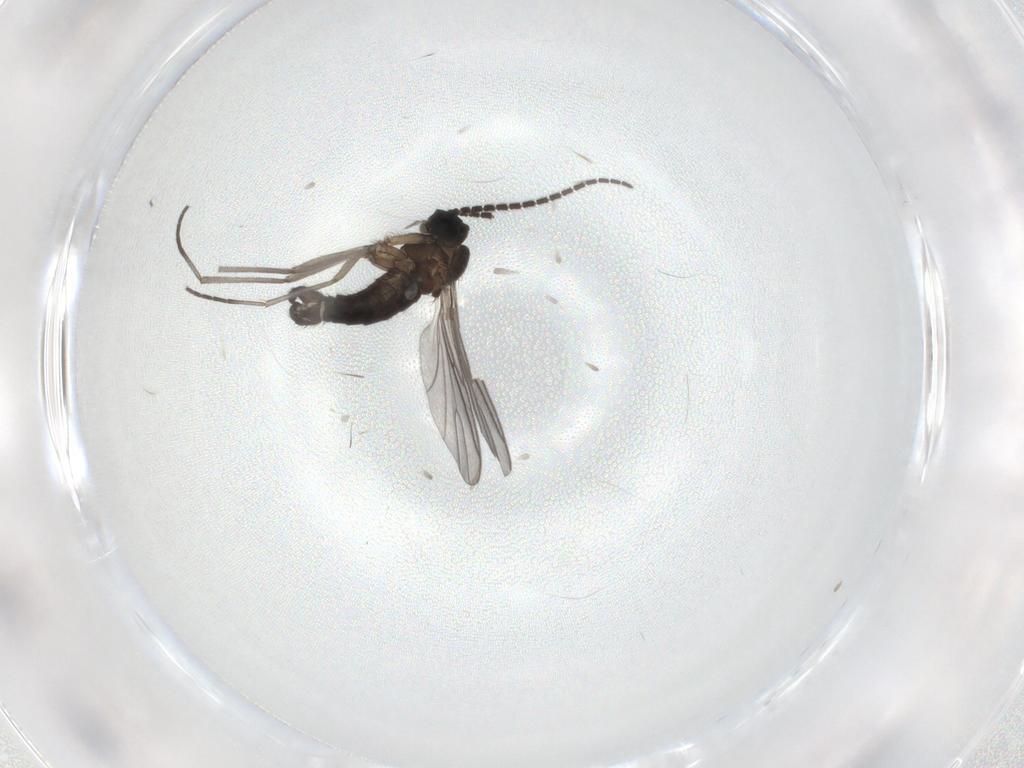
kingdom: Animalia
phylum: Arthropoda
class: Insecta
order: Diptera
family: Sciaridae
